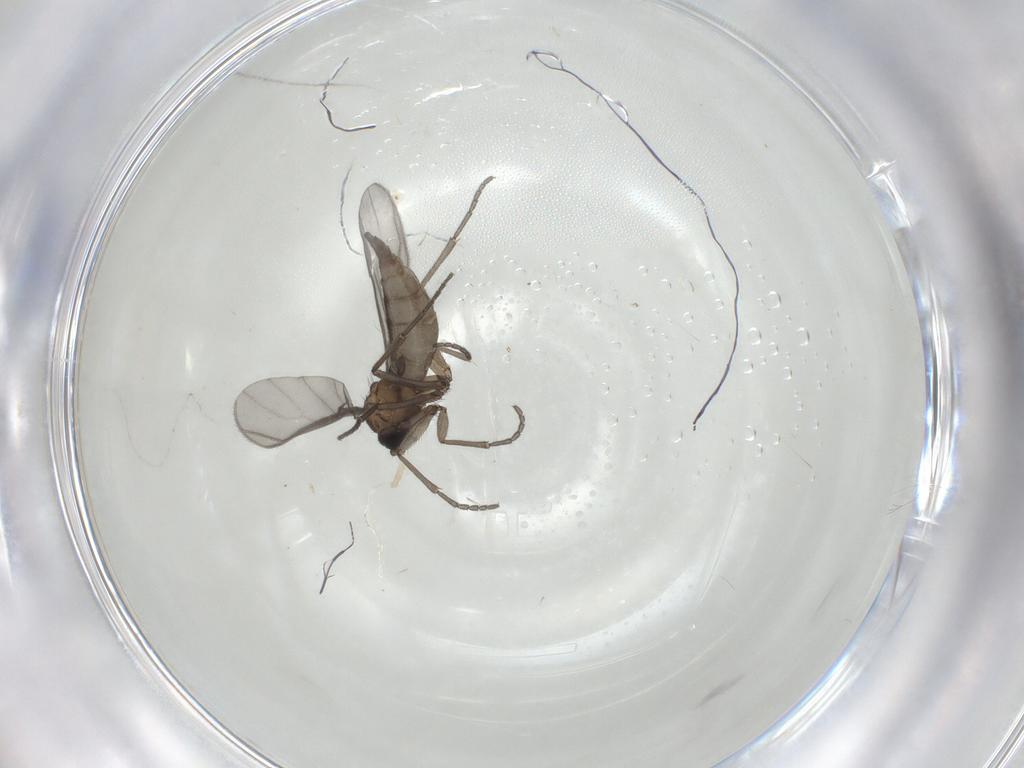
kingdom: Animalia
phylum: Arthropoda
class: Insecta
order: Diptera
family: Sciaridae
